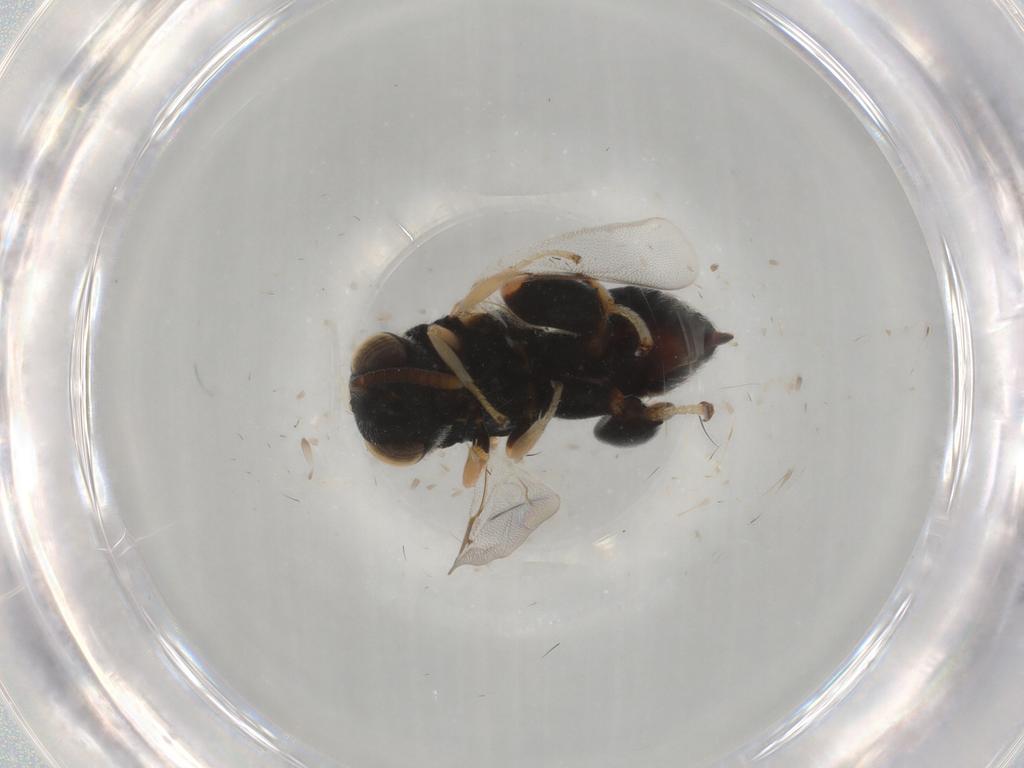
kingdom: Animalia
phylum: Arthropoda
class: Insecta
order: Hymenoptera
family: Chalcididae
